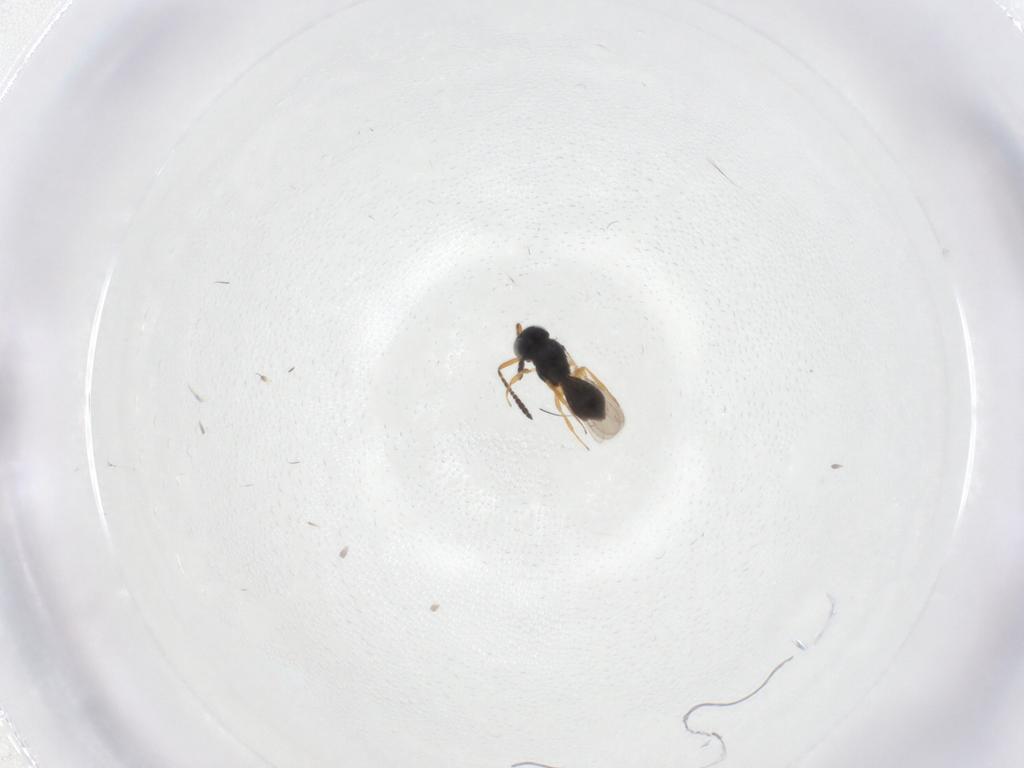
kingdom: Animalia
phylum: Arthropoda
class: Insecta
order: Hymenoptera
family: Scelionidae
